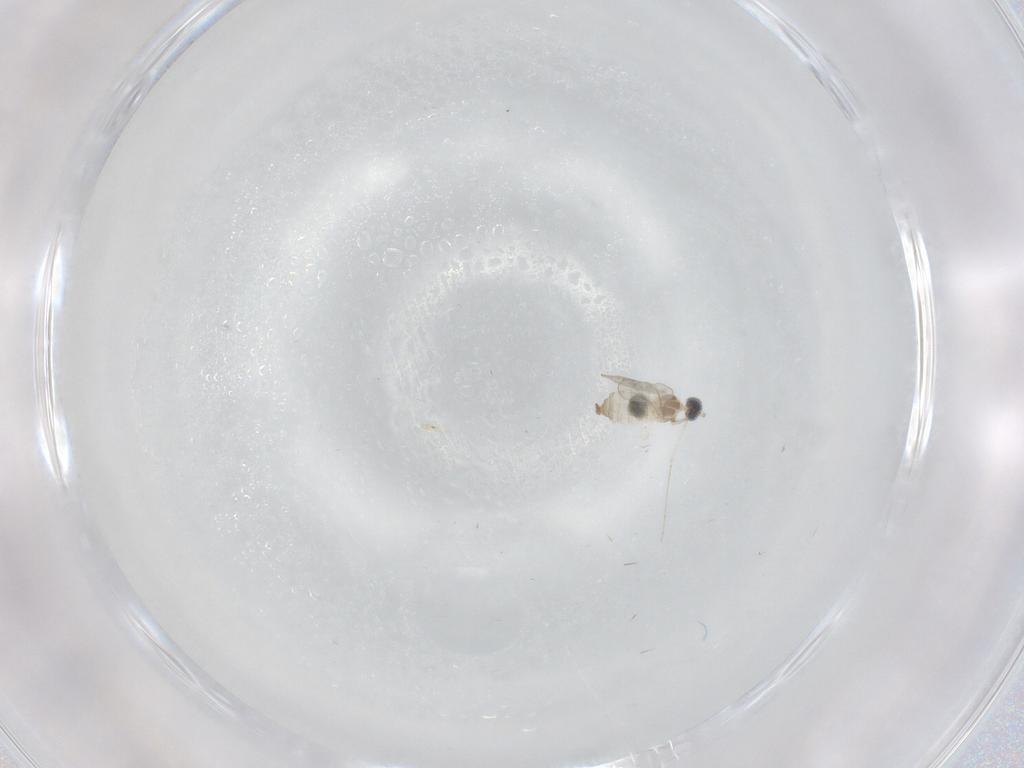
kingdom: Animalia
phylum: Arthropoda
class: Insecta
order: Diptera
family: Cecidomyiidae
